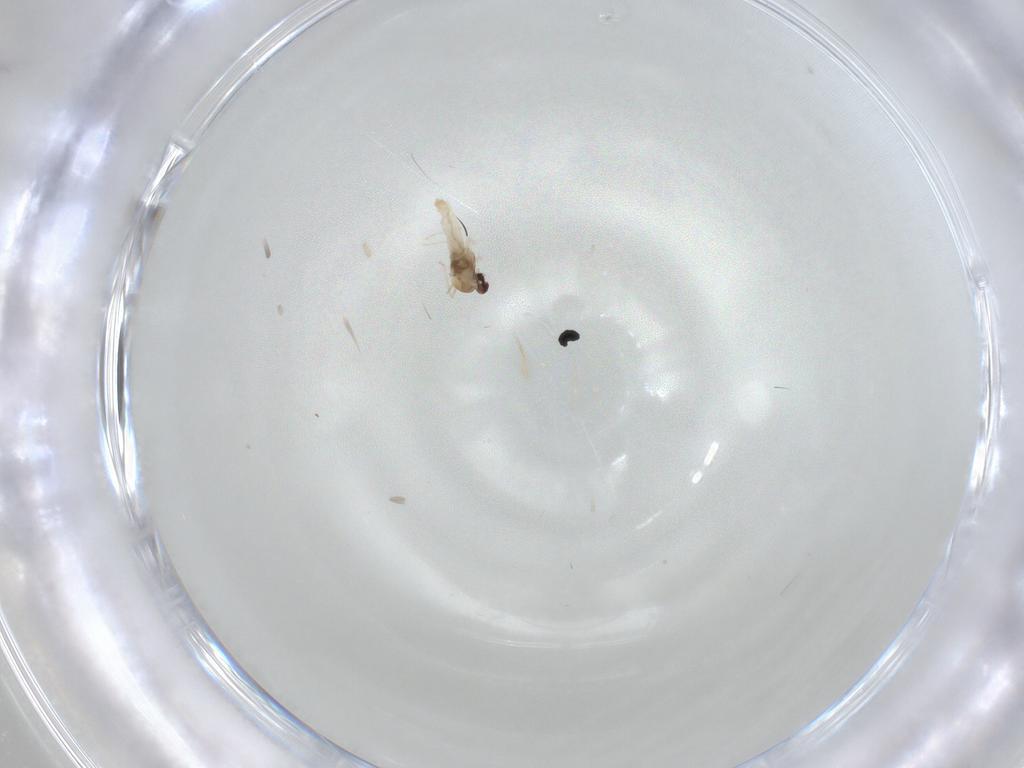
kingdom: Animalia
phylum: Arthropoda
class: Insecta
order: Diptera
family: Cecidomyiidae
